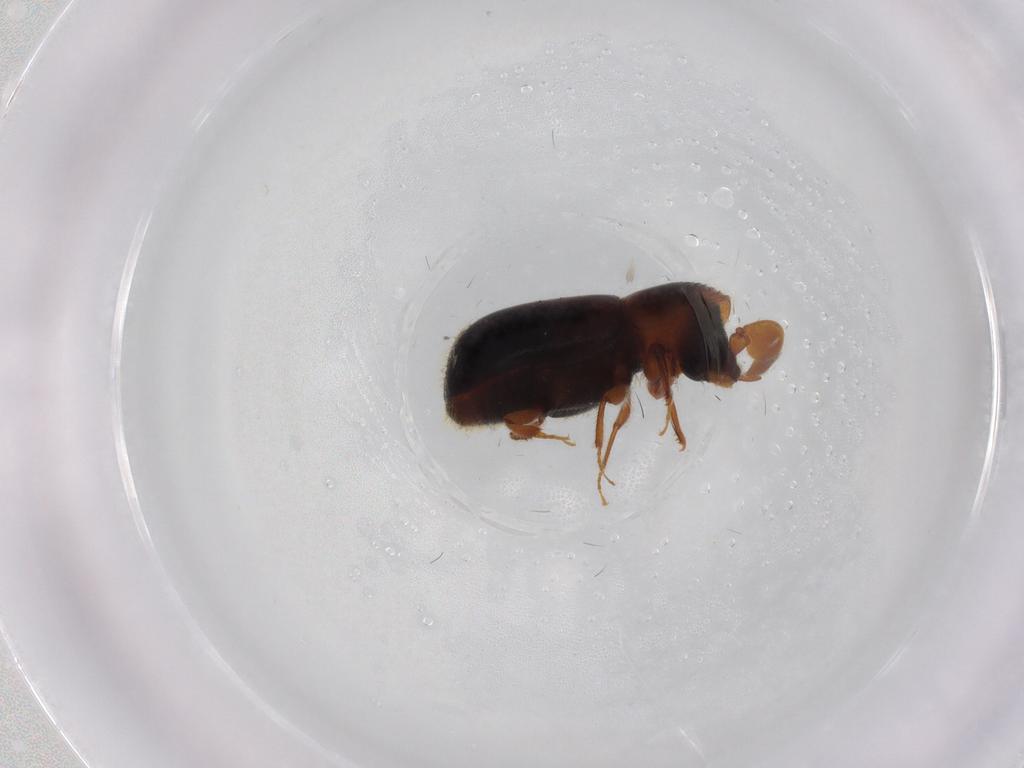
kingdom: Animalia
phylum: Arthropoda
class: Insecta
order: Coleoptera
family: Curculionidae
